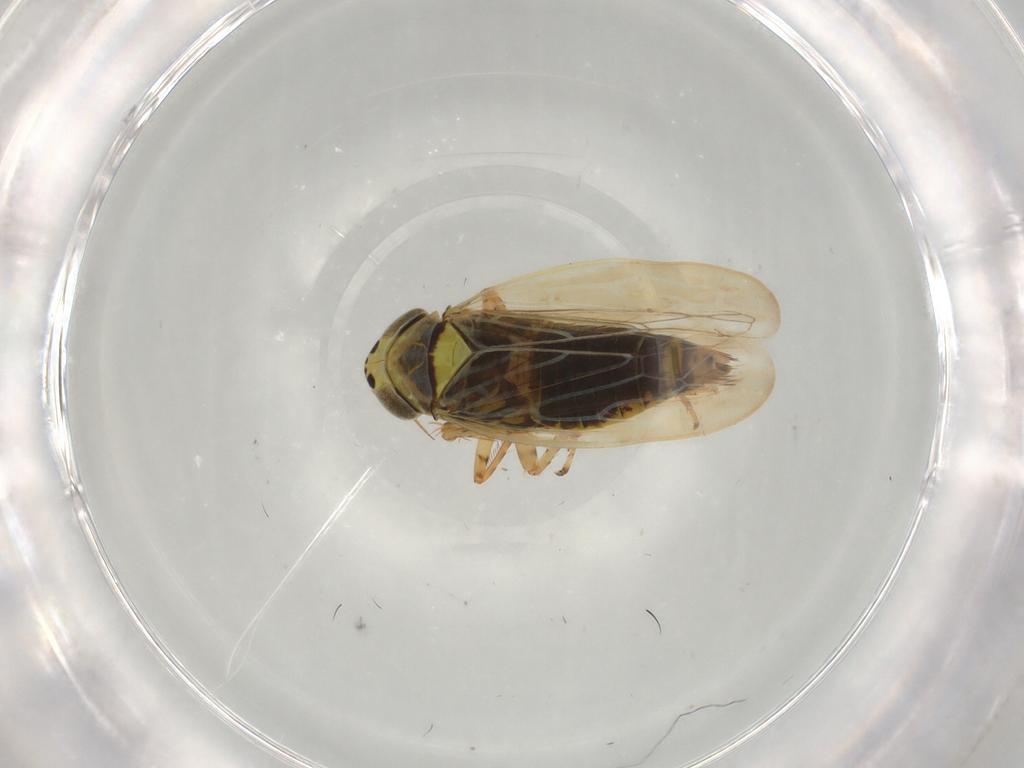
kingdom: Animalia
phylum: Arthropoda
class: Insecta
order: Hemiptera
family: Cicadellidae
